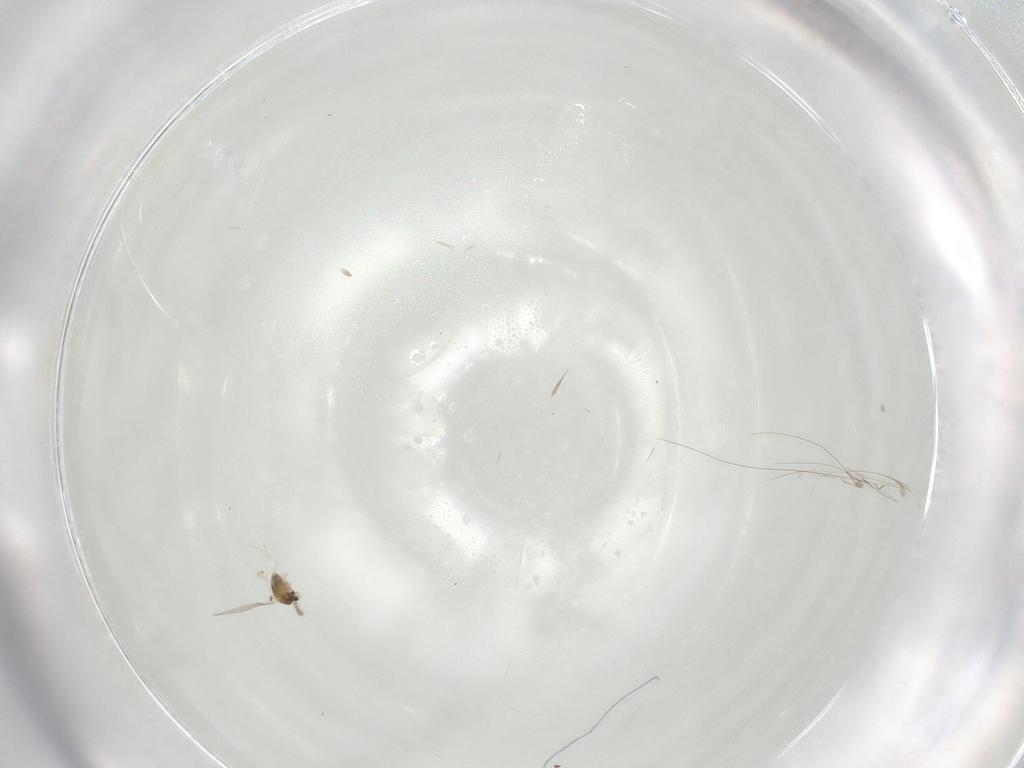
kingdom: Animalia
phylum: Arthropoda
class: Insecta
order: Diptera
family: Cecidomyiidae
